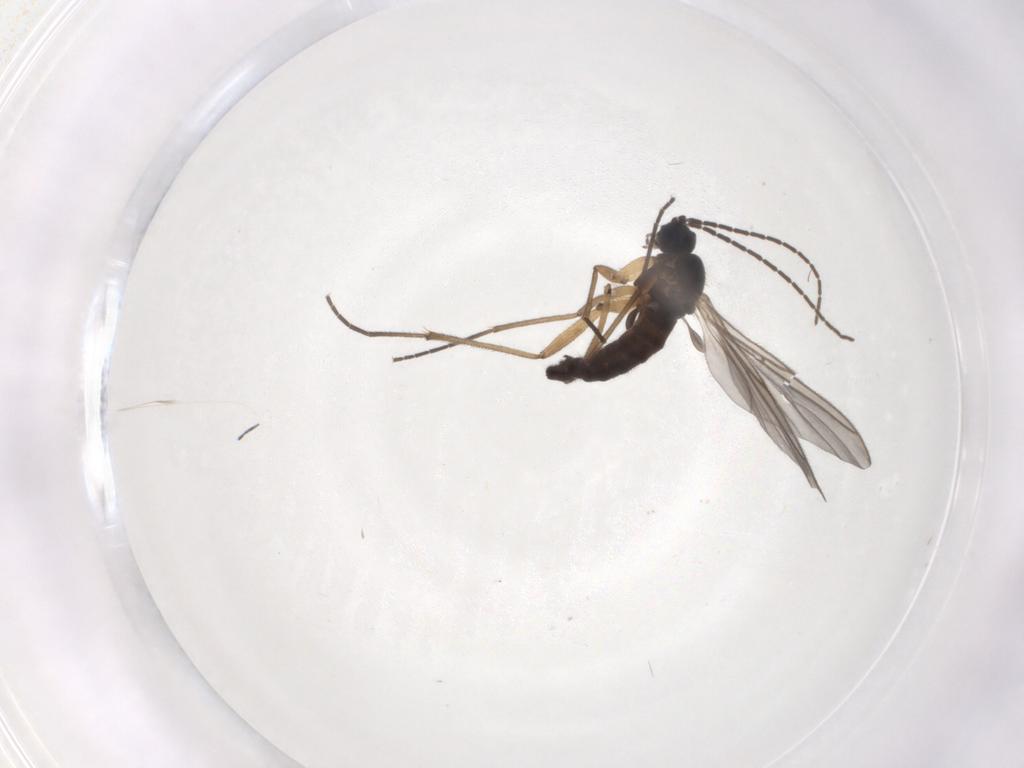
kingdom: Animalia
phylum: Arthropoda
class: Insecta
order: Diptera
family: Sciaridae
